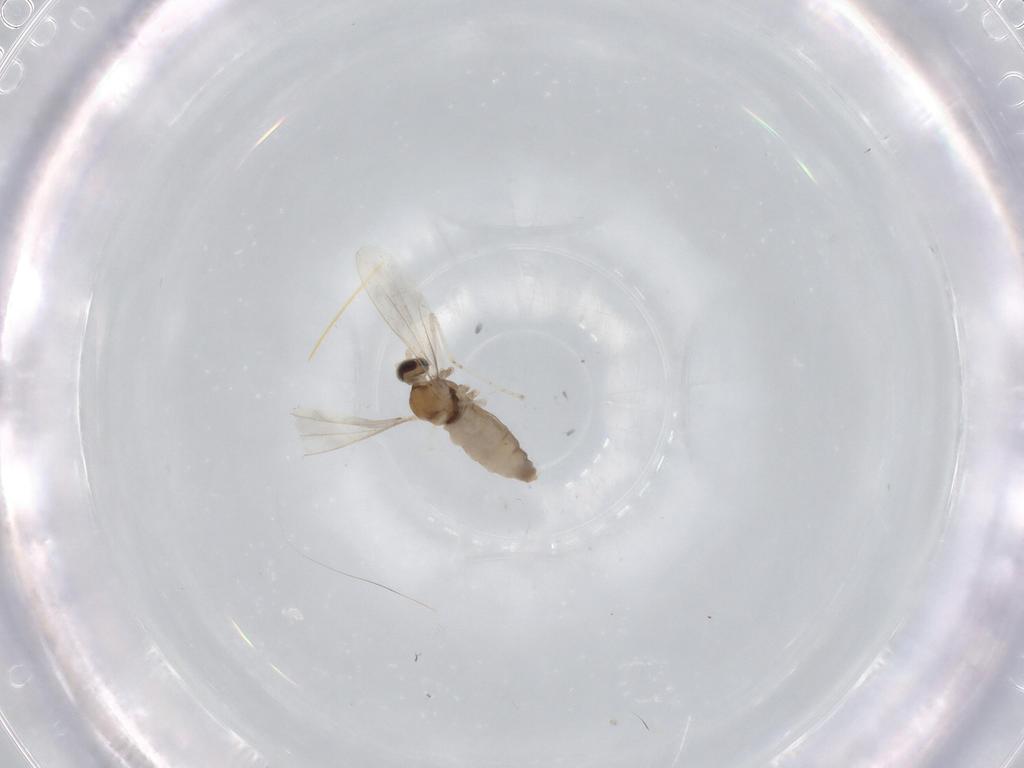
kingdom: Animalia
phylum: Arthropoda
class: Insecta
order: Diptera
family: Cecidomyiidae
